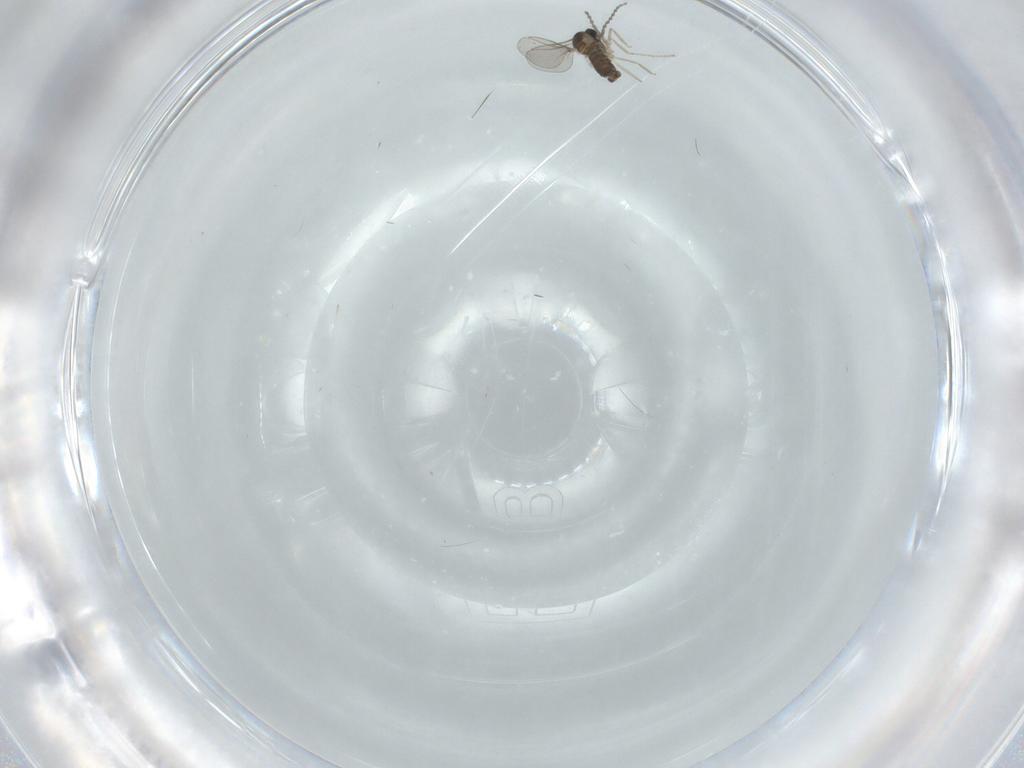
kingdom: Animalia
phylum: Arthropoda
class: Insecta
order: Diptera
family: Cecidomyiidae
